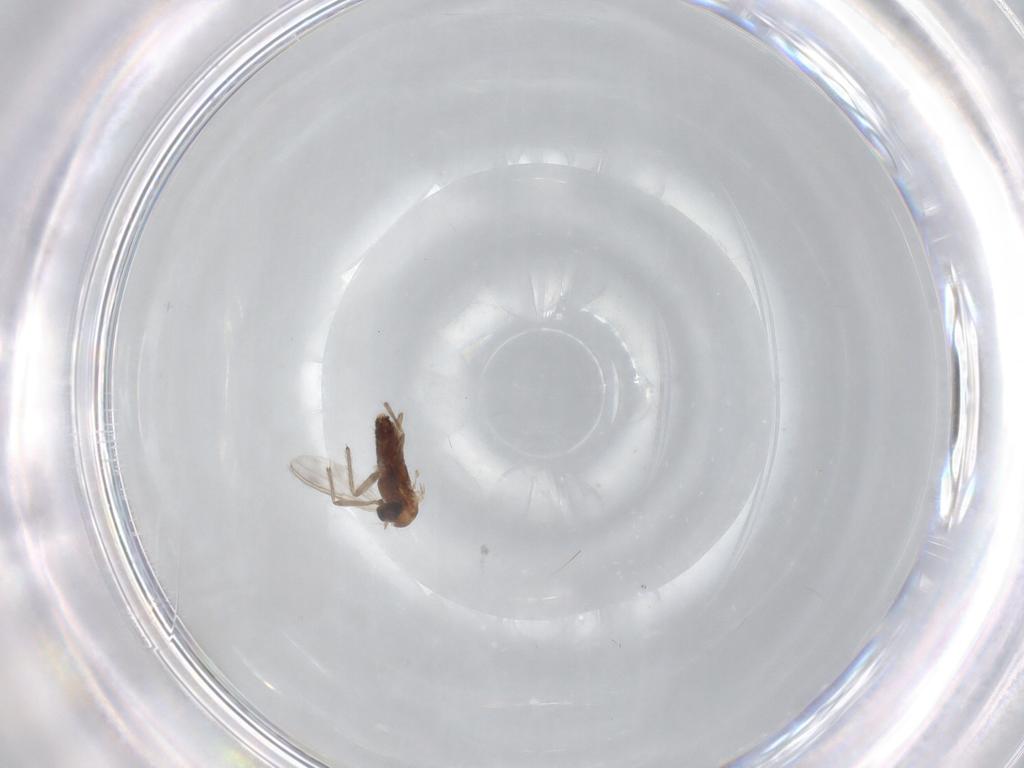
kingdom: Animalia
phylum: Arthropoda
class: Insecta
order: Diptera
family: Chironomidae
